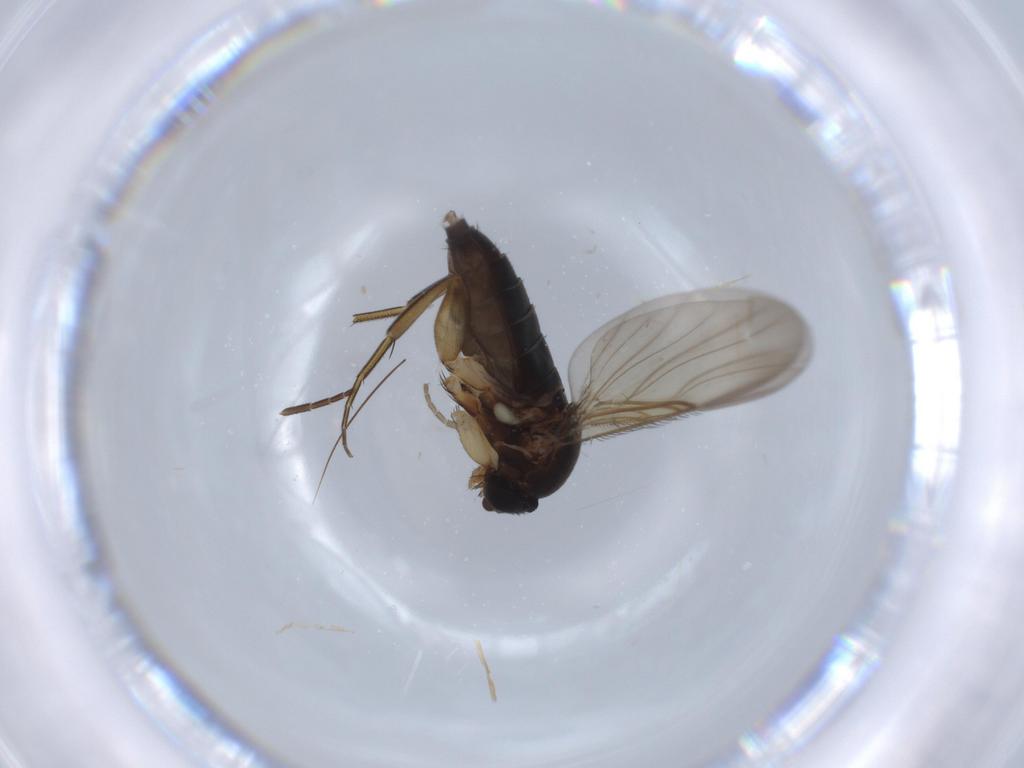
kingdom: Animalia
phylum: Arthropoda
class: Insecta
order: Diptera
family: Phoridae
